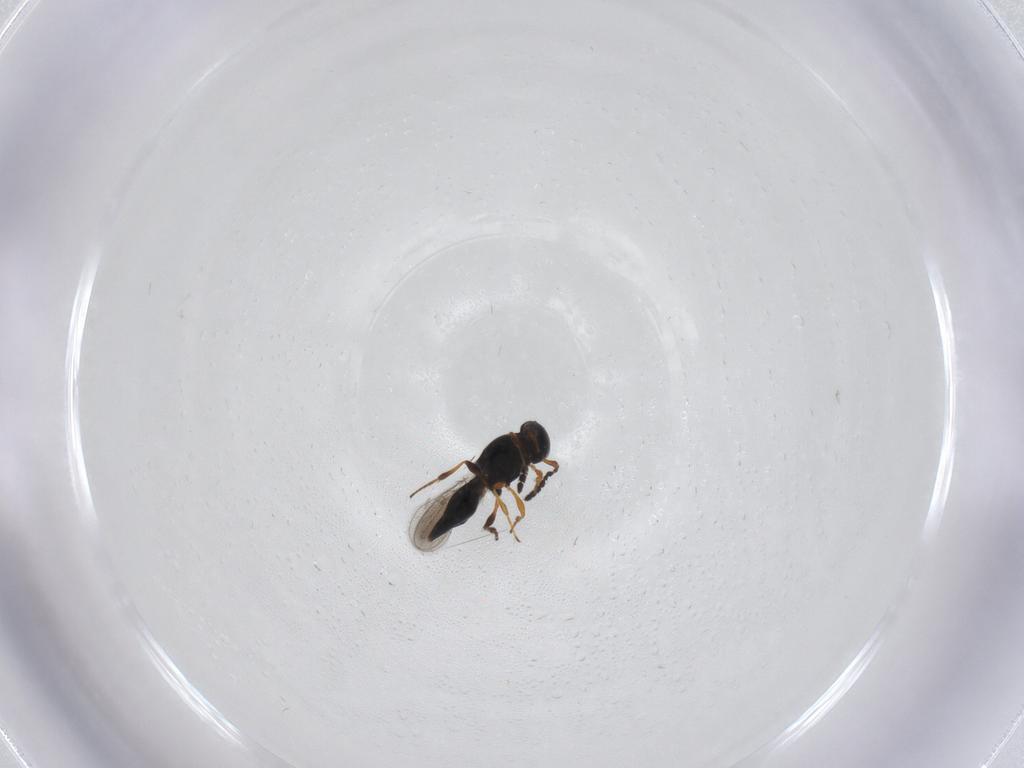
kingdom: Animalia
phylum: Arthropoda
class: Insecta
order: Hymenoptera
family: Platygastridae
